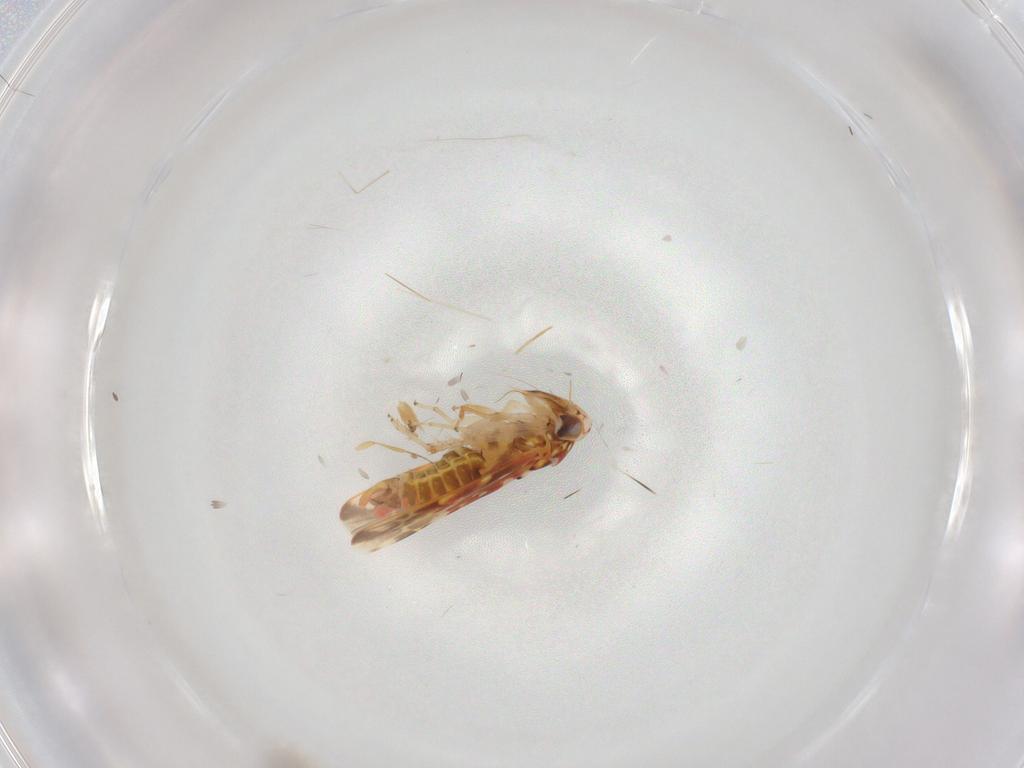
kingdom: Animalia
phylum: Arthropoda
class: Insecta
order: Hemiptera
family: Cicadellidae
